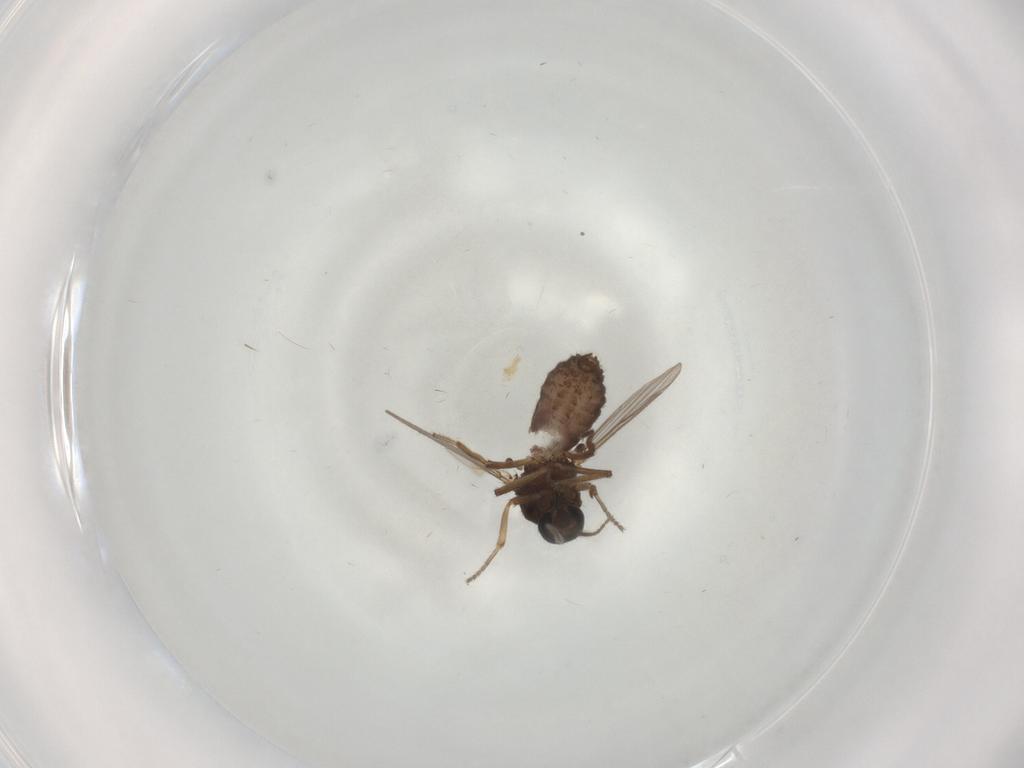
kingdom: Animalia
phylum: Arthropoda
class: Insecta
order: Diptera
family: Ceratopogonidae
